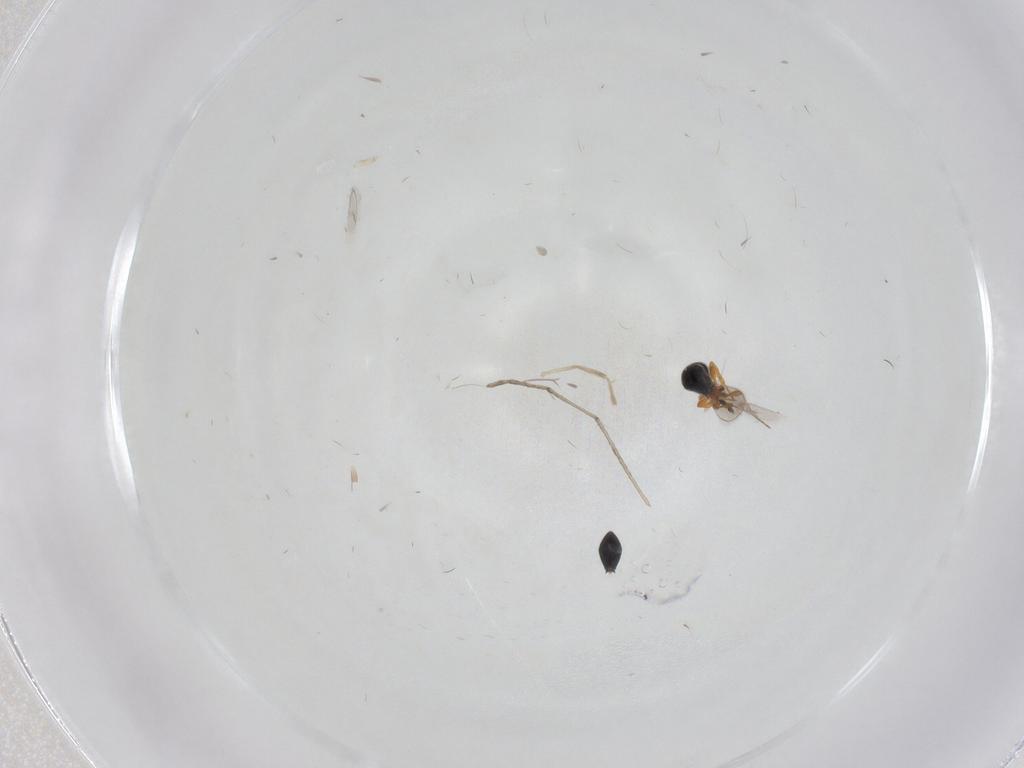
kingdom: Animalia
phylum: Arthropoda
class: Insecta
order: Hymenoptera
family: Platygastridae
